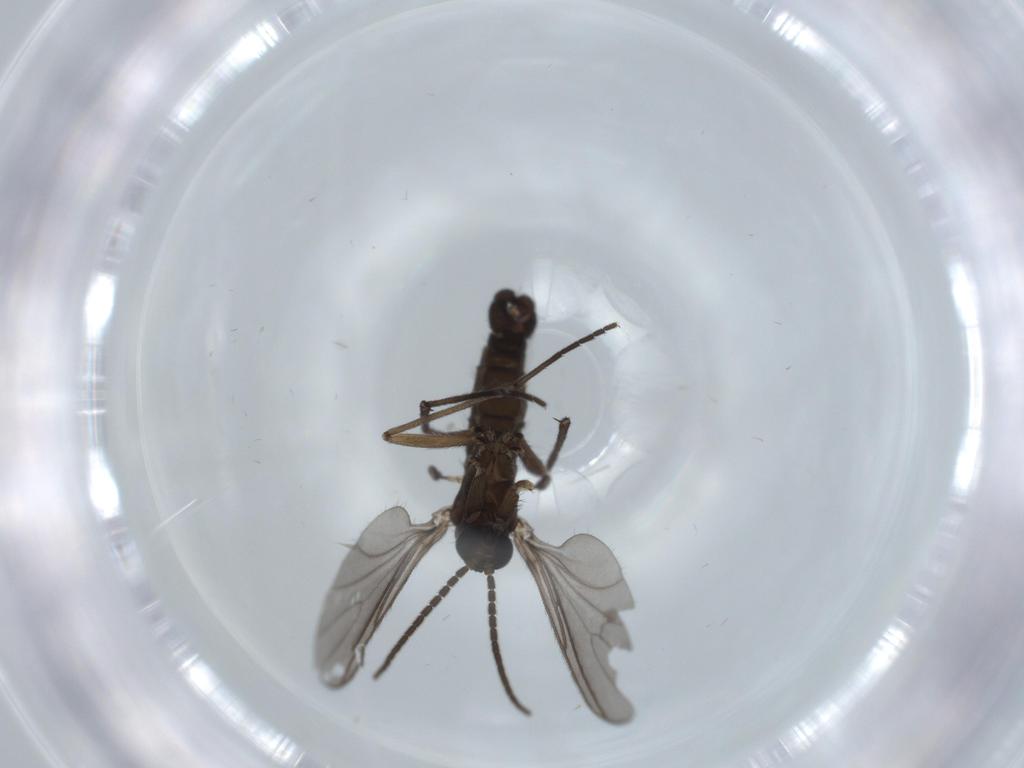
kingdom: Animalia
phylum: Arthropoda
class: Insecta
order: Diptera
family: Sciaridae
